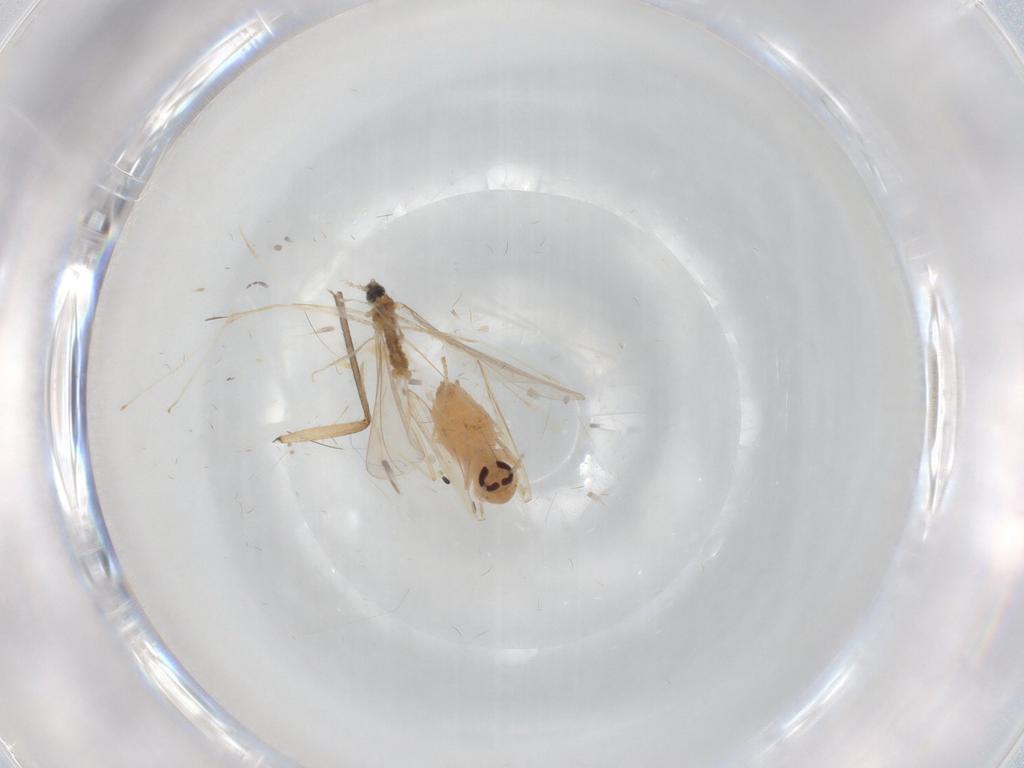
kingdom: Animalia
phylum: Arthropoda
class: Insecta
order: Diptera
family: Psychodidae
